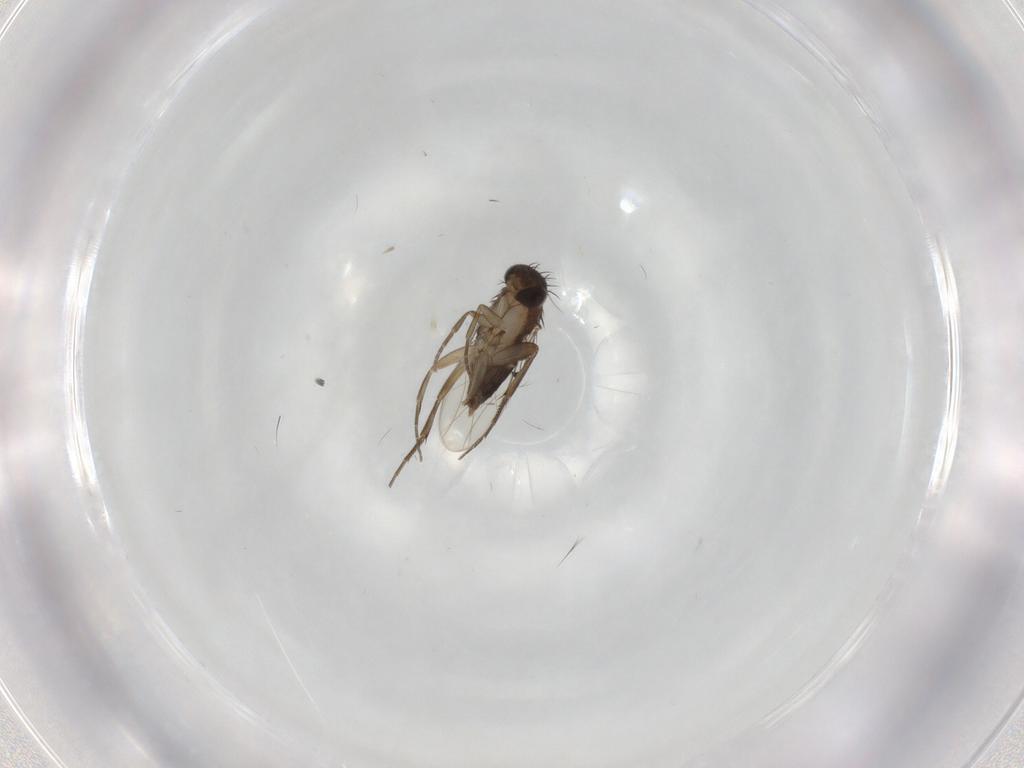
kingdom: Animalia
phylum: Arthropoda
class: Insecta
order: Diptera
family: Phoridae
